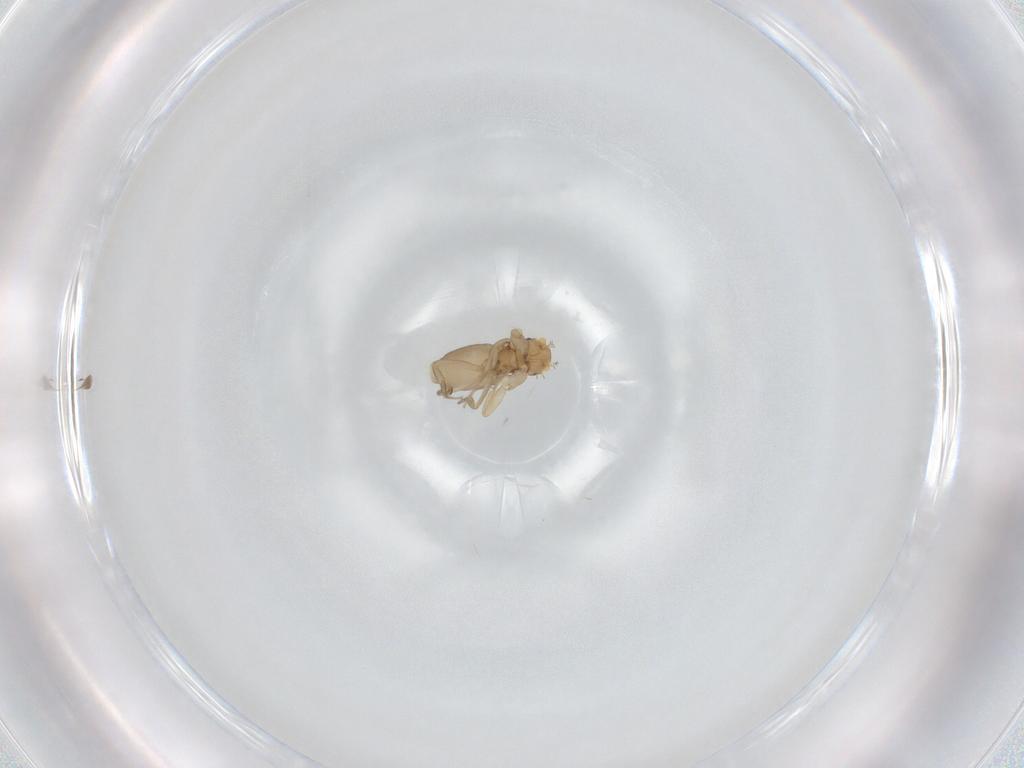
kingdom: Animalia
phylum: Arthropoda
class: Insecta
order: Diptera
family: Phoridae
